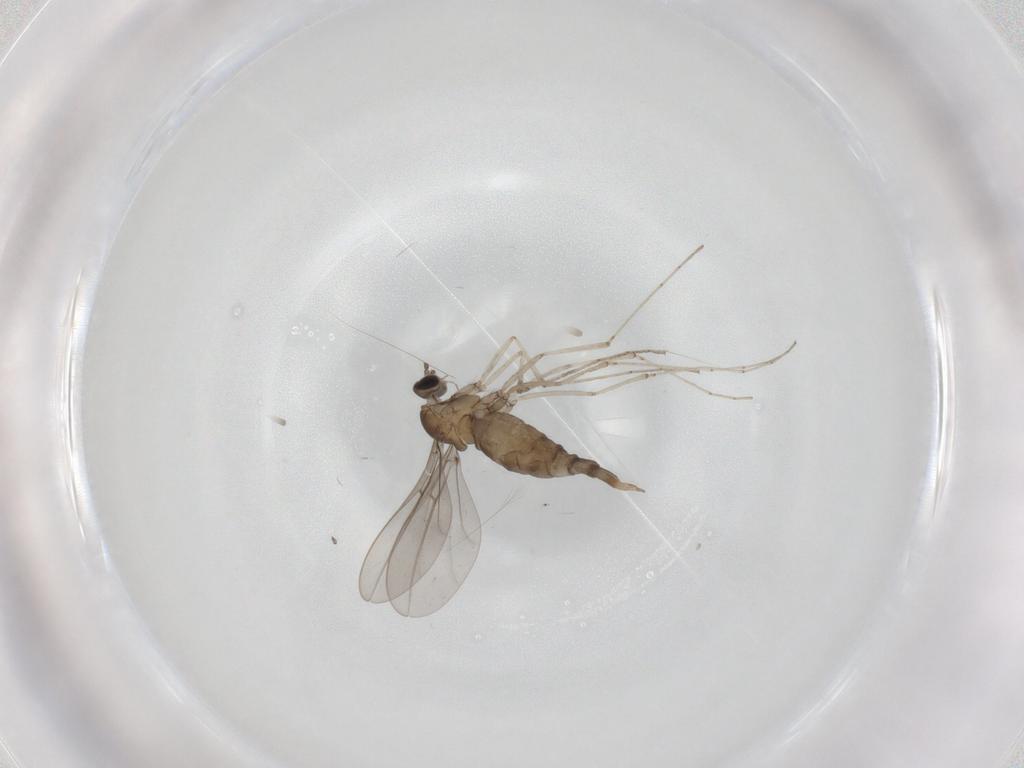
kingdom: Animalia
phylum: Arthropoda
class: Insecta
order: Diptera
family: Cecidomyiidae
